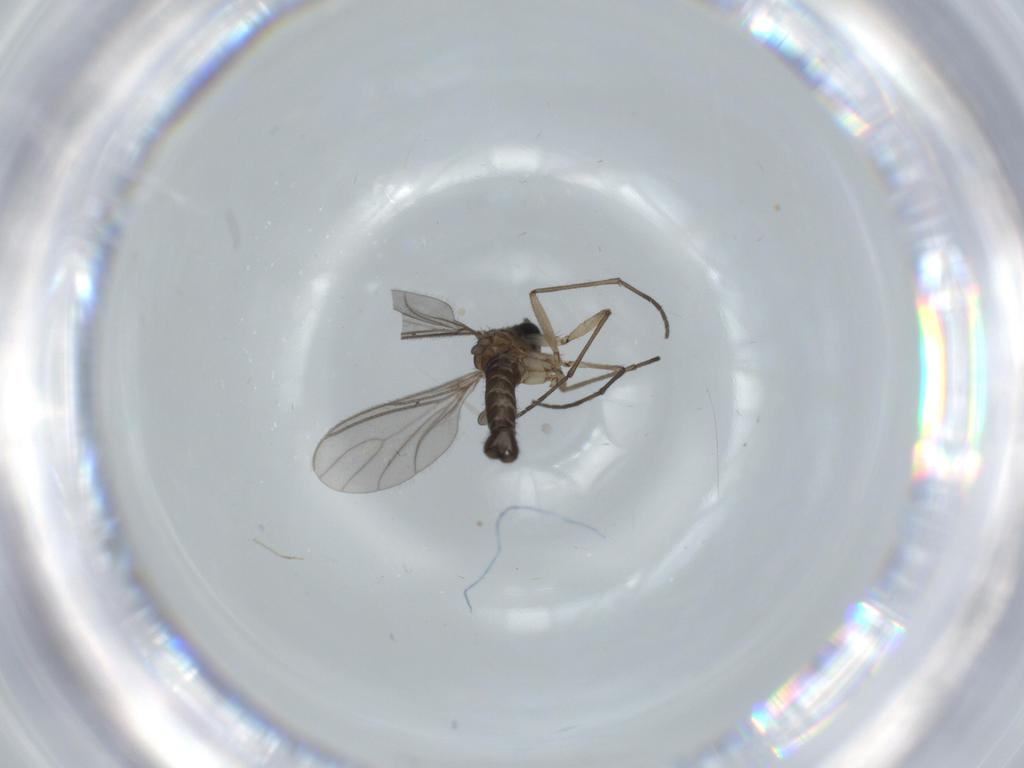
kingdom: Animalia
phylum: Arthropoda
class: Insecta
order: Diptera
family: Sciaridae
